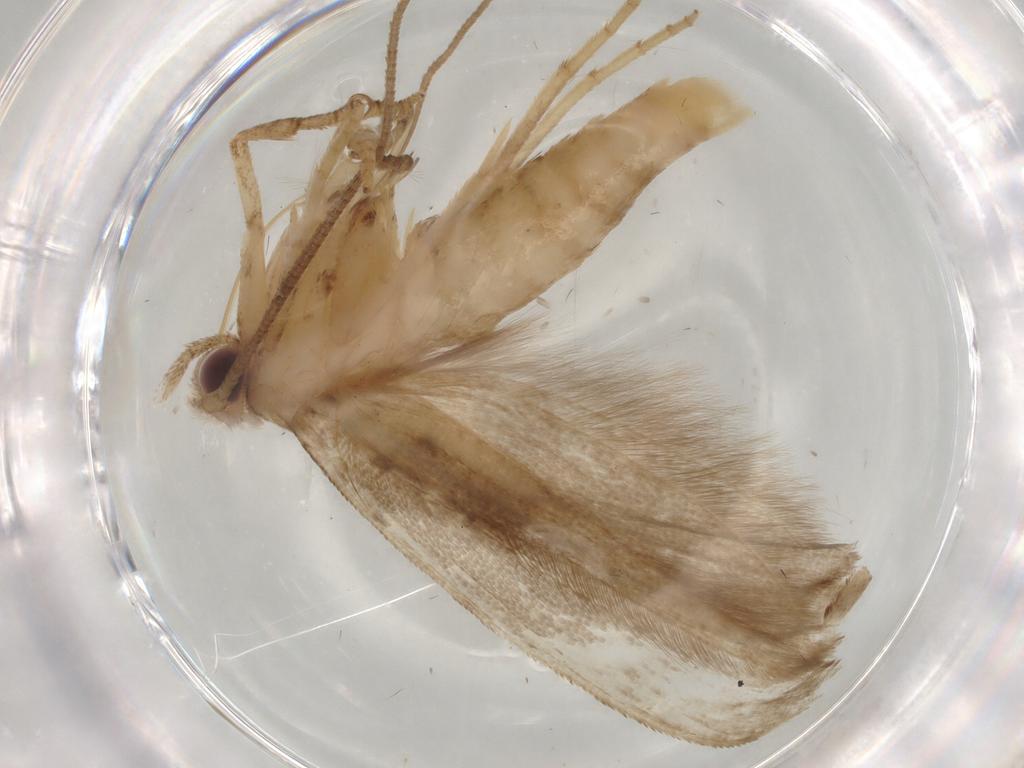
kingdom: Animalia
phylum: Arthropoda
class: Insecta
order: Lepidoptera
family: Yponomeutidae
